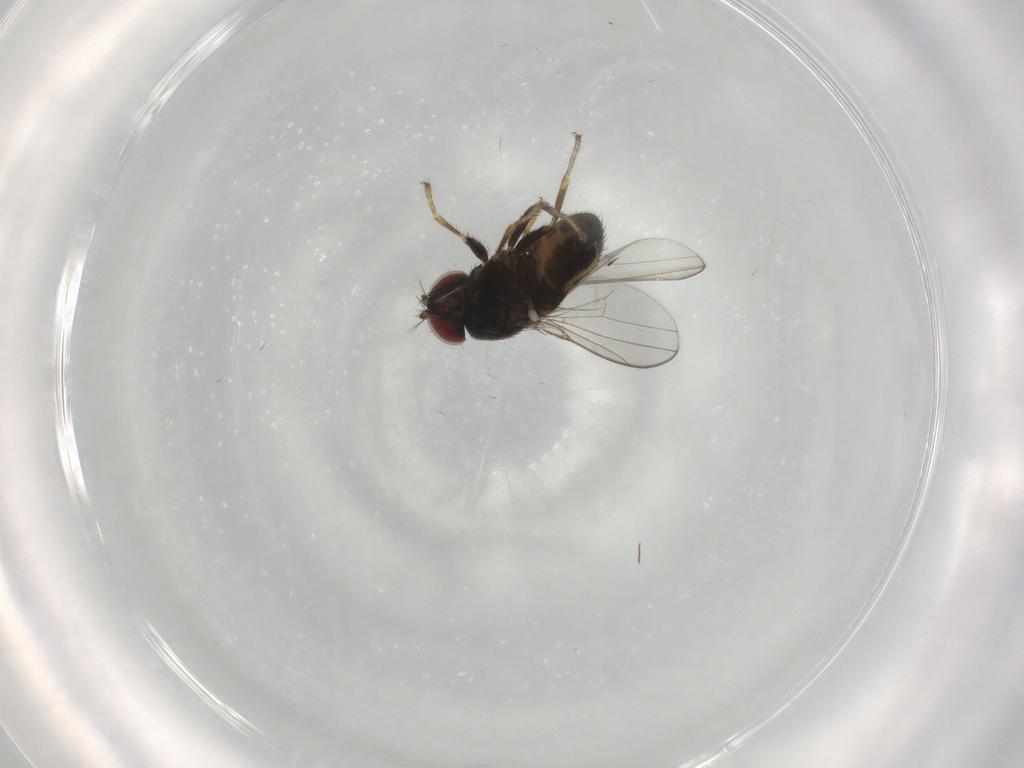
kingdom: Animalia
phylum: Arthropoda
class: Insecta
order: Diptera
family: Ephydridae
